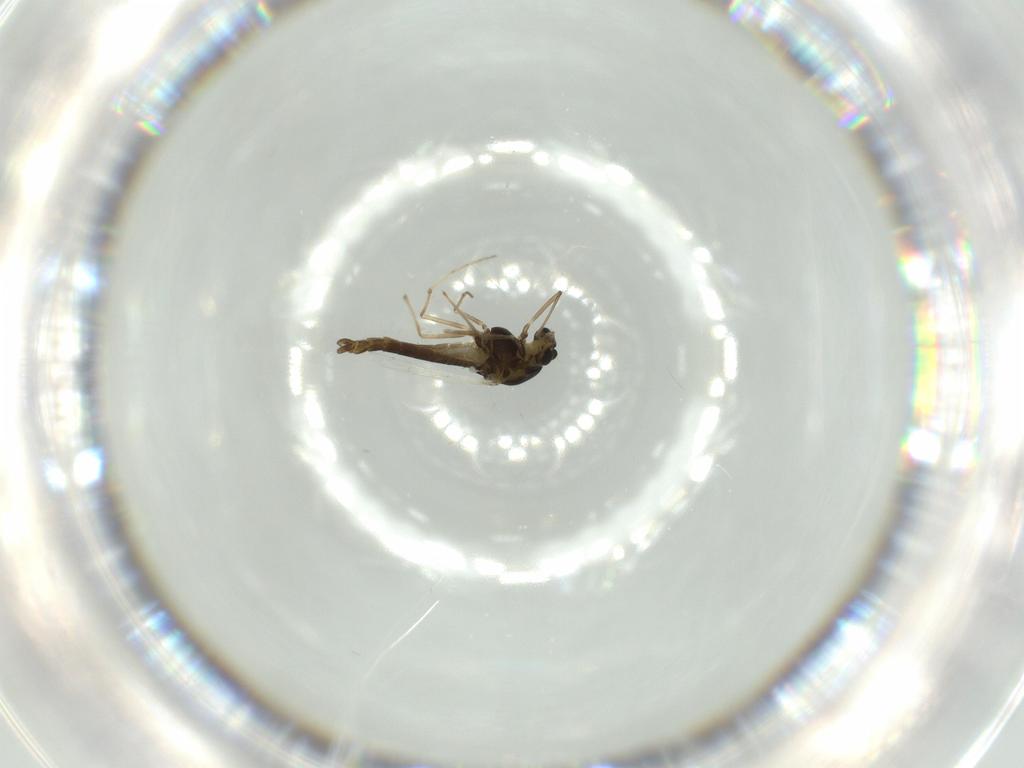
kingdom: Animalia
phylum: Arthropoda
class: Insecta
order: Diptera
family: Chironomidae
